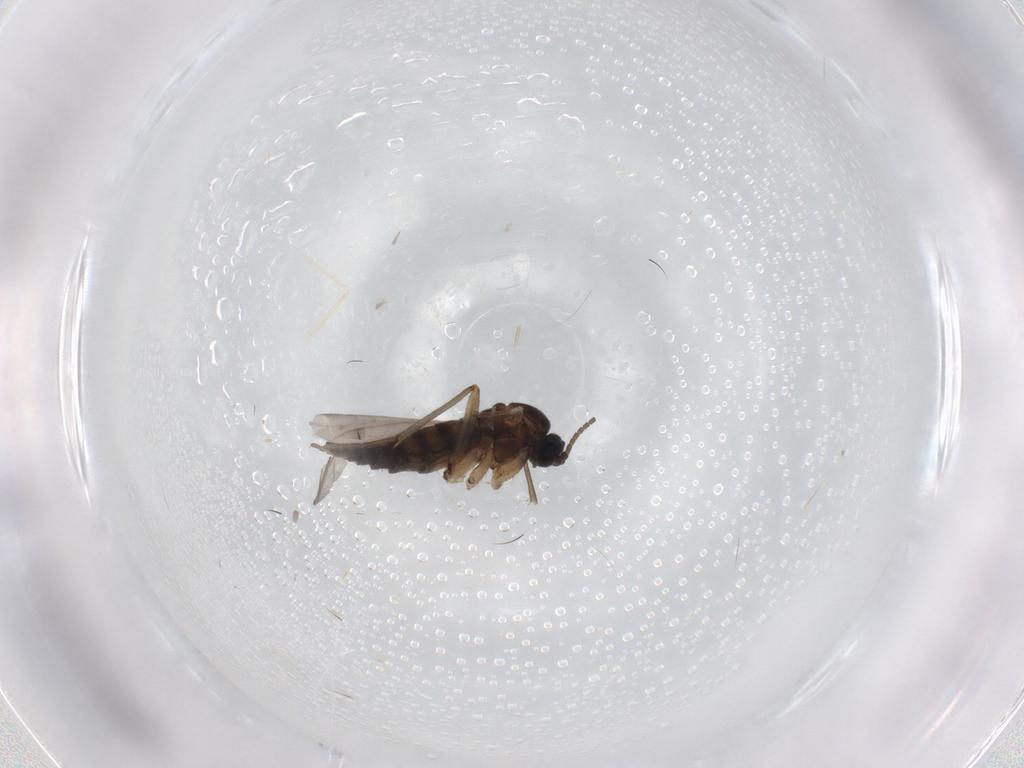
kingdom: Animalia
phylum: Arthropoda
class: Insecta
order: Diptera
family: Sciaridae
